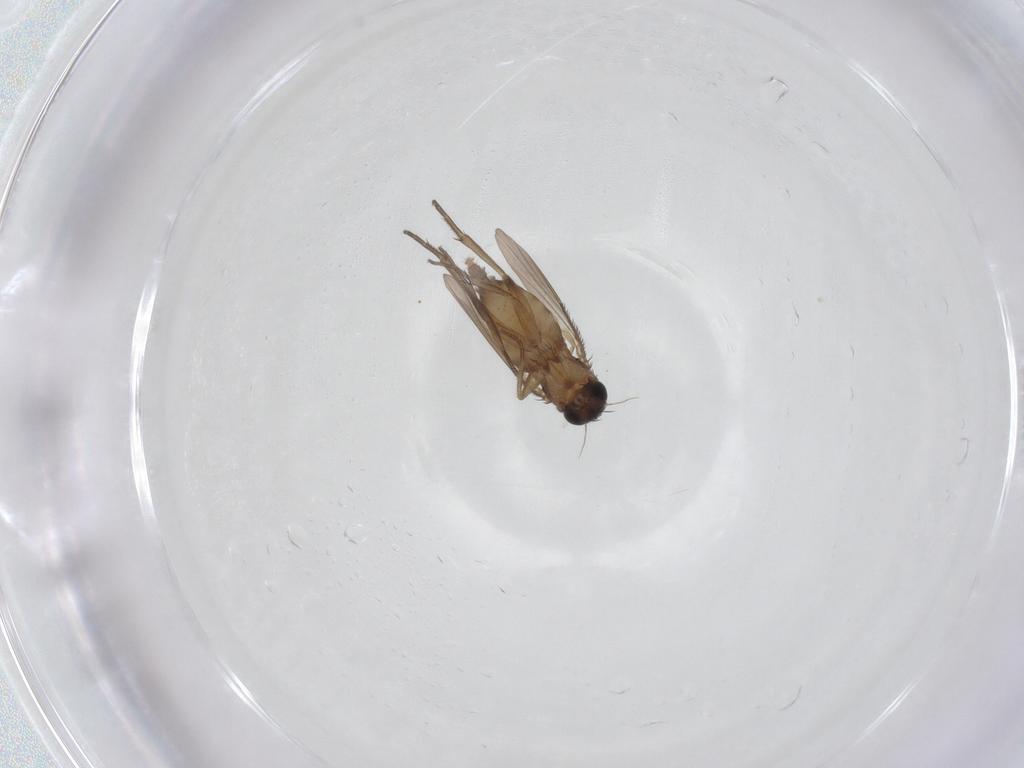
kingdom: Animalia
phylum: Arthropoda
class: Insecta
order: Diptera
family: Phoridae
